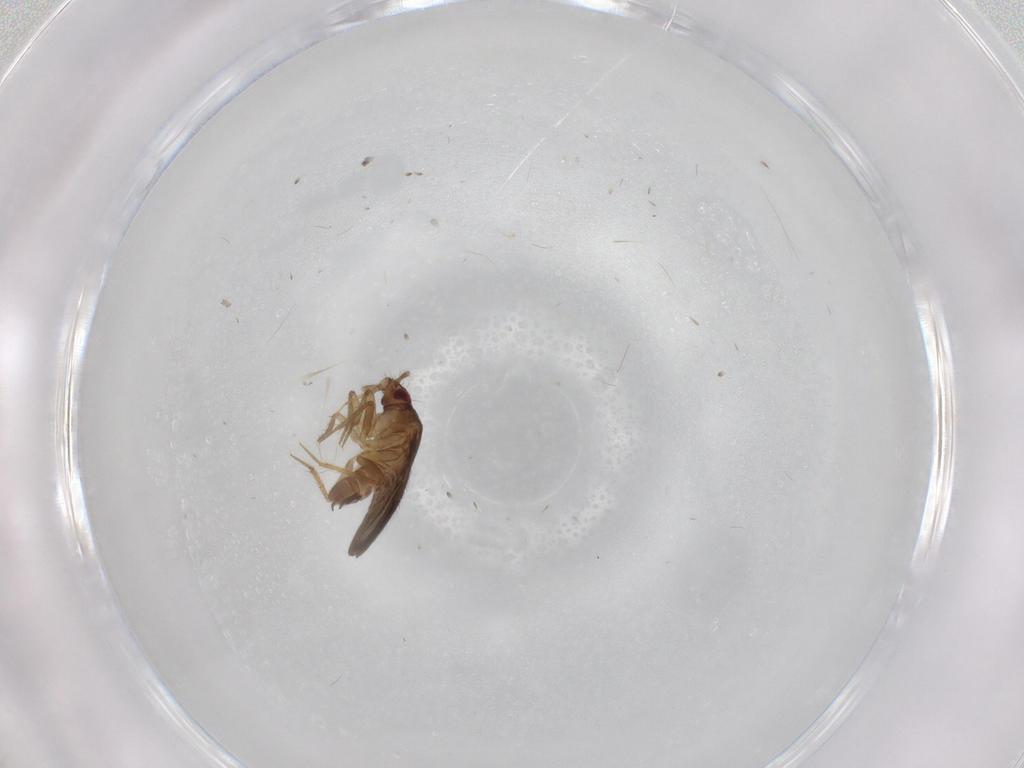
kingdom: Animalia
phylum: Arthropoda
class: Insecta
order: Hemiptera
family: Ceratocombidae
